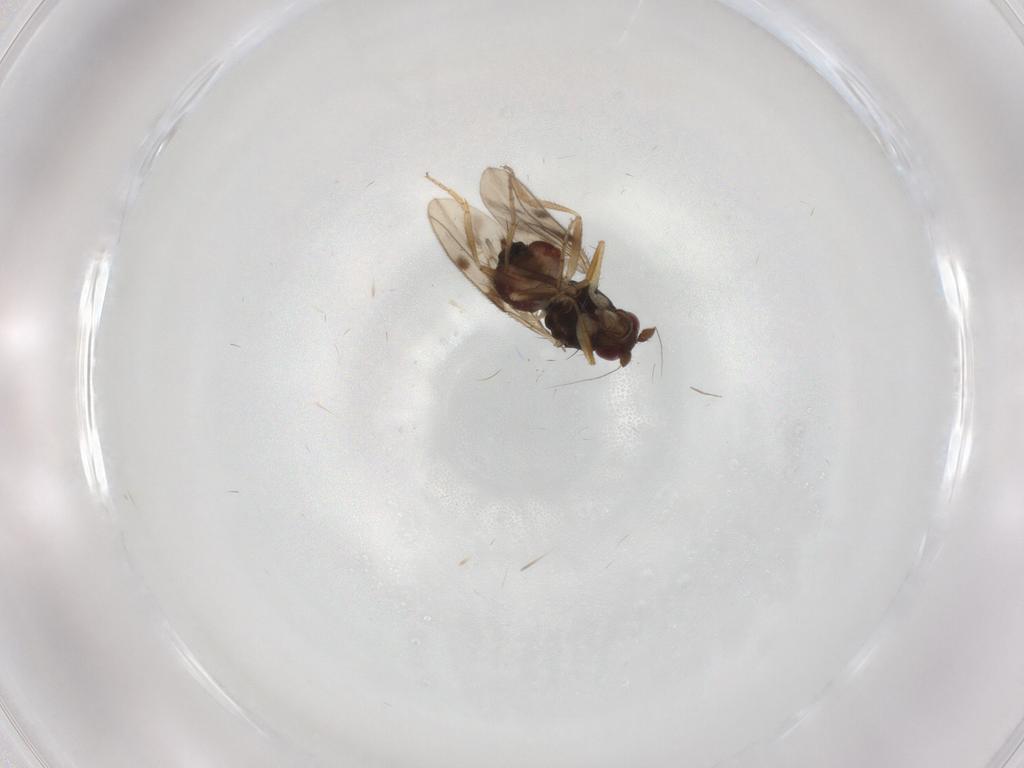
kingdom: Animalia
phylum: Arthropoda
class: Insecta
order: Diptera
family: Sphaeroceridae
